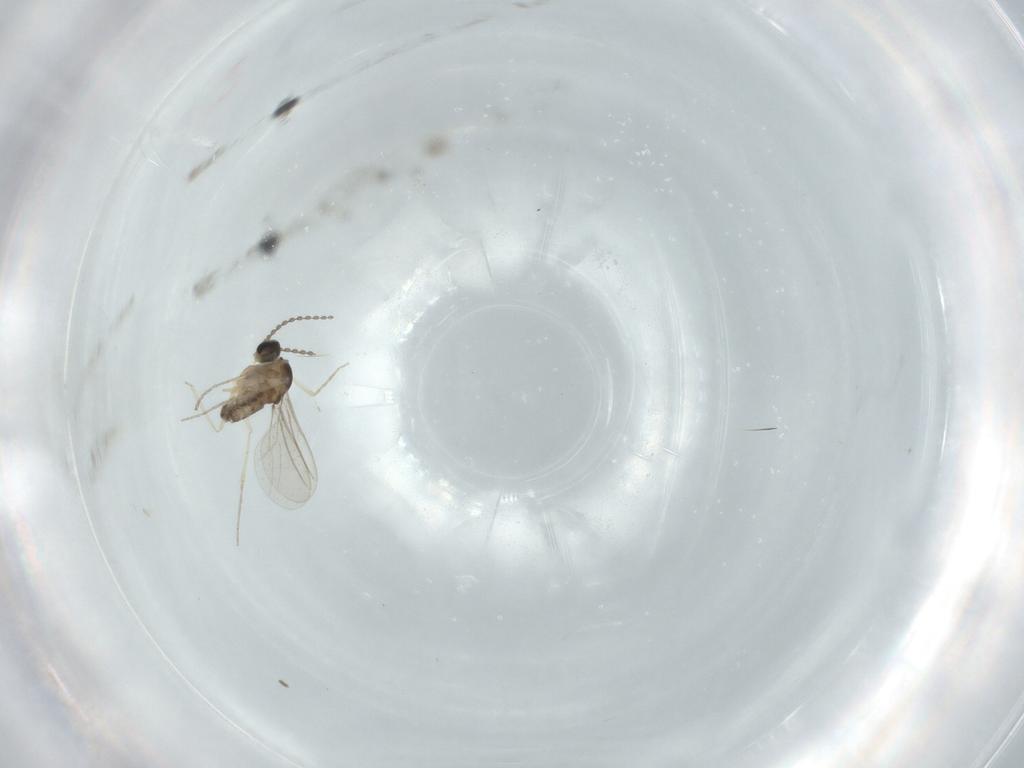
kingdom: Animalia
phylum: Arthropoda
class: Insecta
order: Diptera
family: Cecidomyiidae
